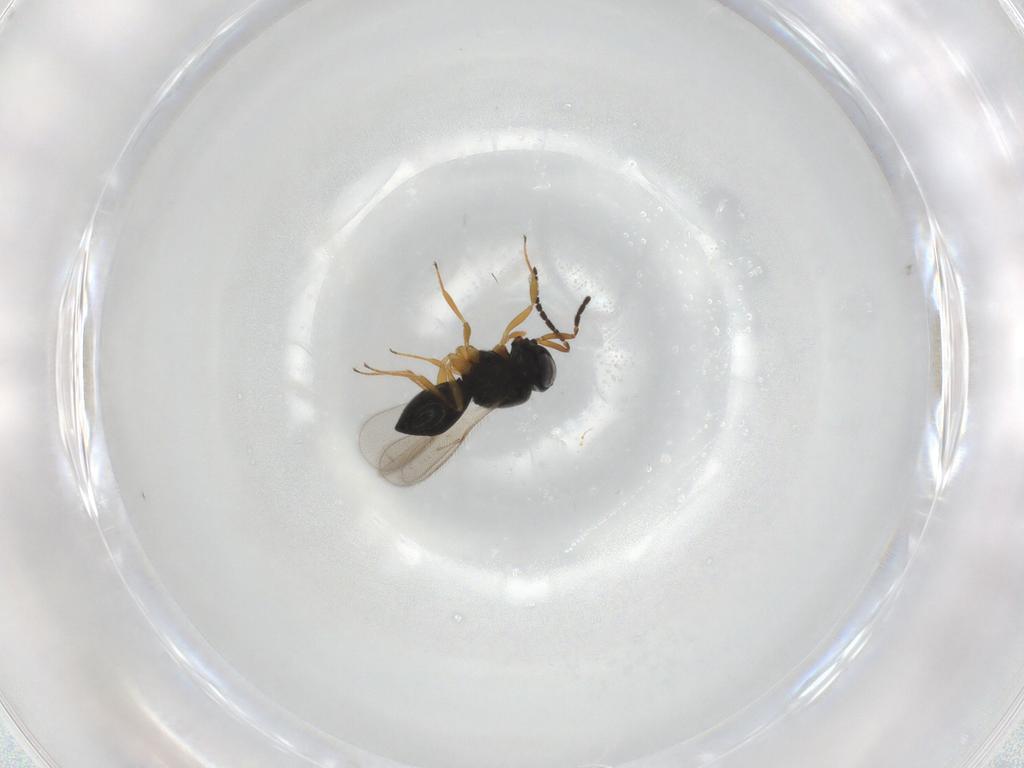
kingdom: Animalia
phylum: Arthropoda
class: Insecta
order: Hymenoptera
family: Scelionidae
